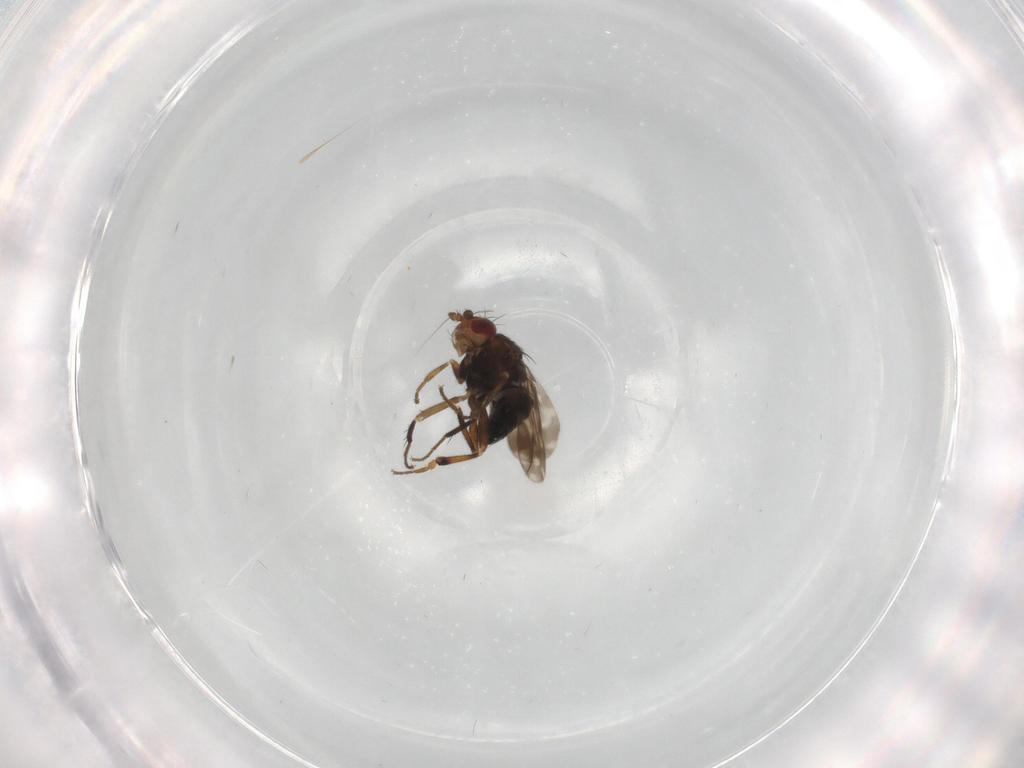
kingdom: Animalia
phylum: Arthropoda
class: Insecta
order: Diptera
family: Sphaeroceridae
